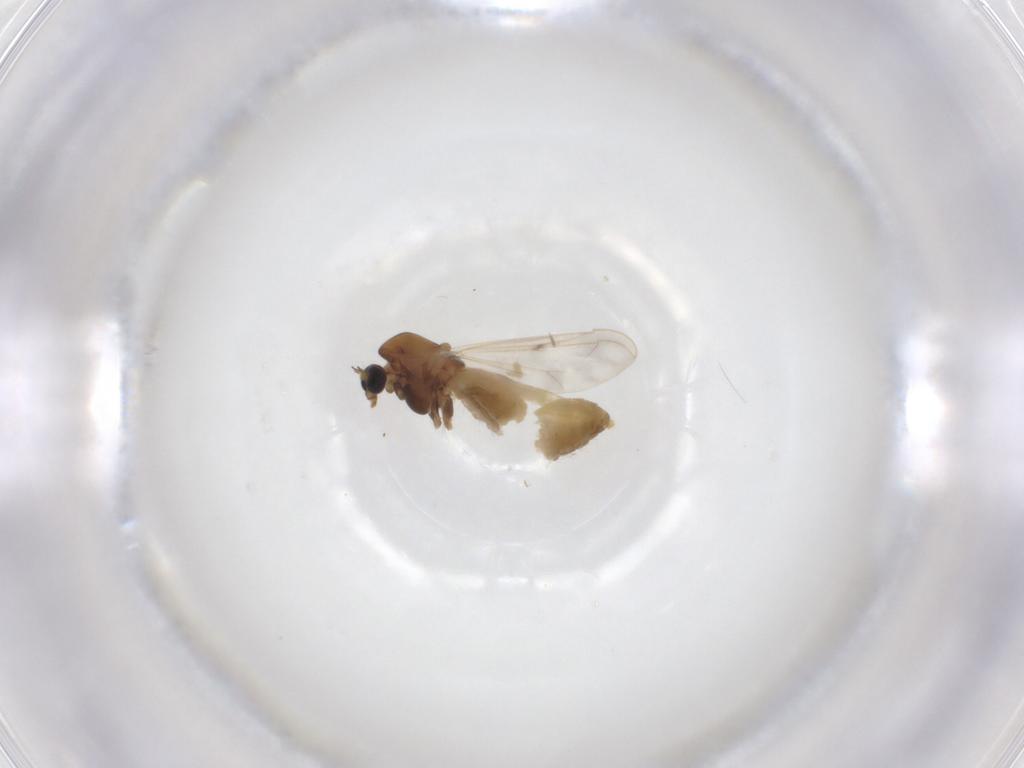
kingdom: Animalia
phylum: Arthropoda
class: Insecta
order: Diptera
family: Chironomidae
